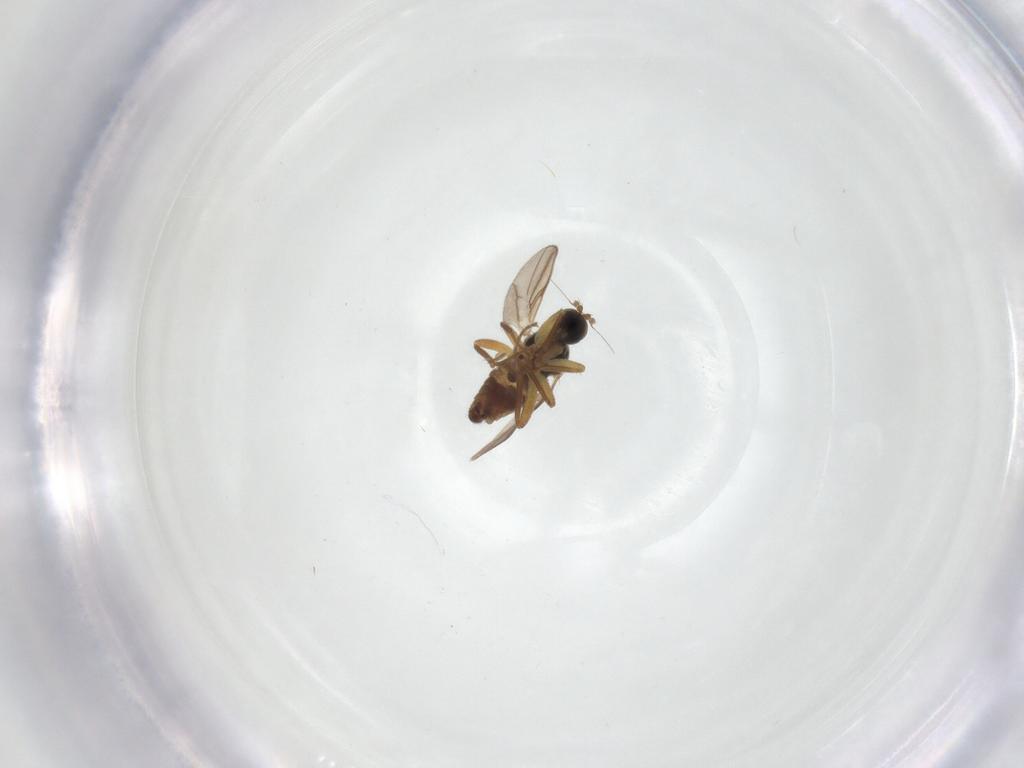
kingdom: Animalia
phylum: Arthropoda
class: Insecta
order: Diptera
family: Hybotidae
